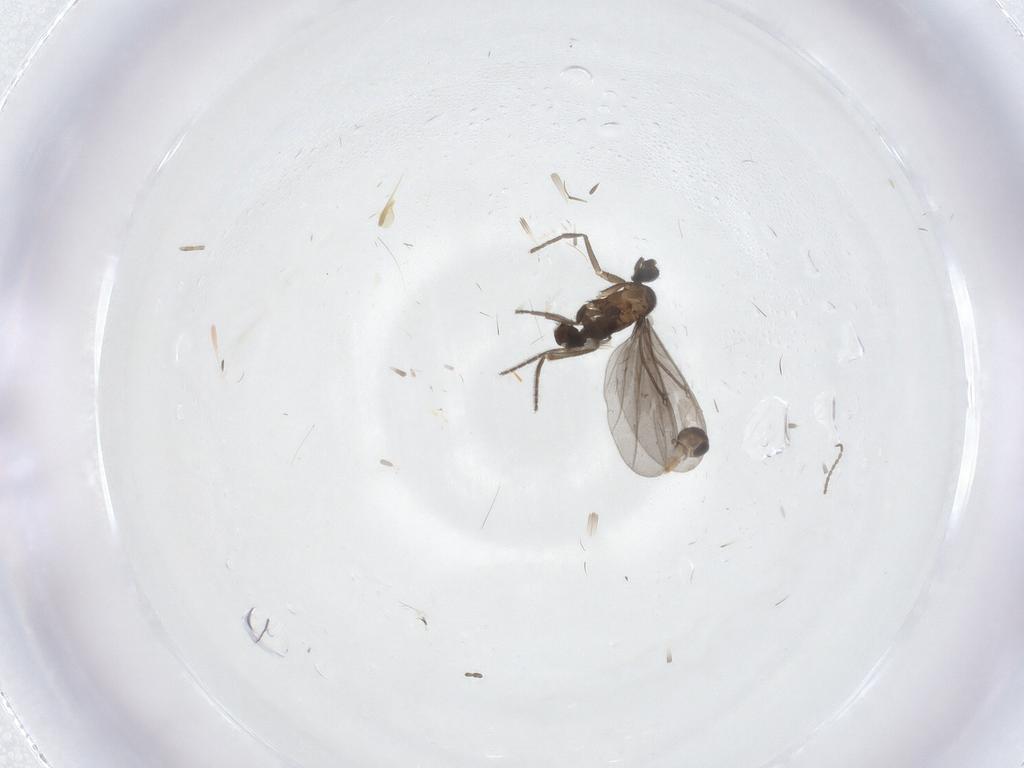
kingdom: Animalia
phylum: Arthropoda
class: Insecta
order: Diptera
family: Phoridae
